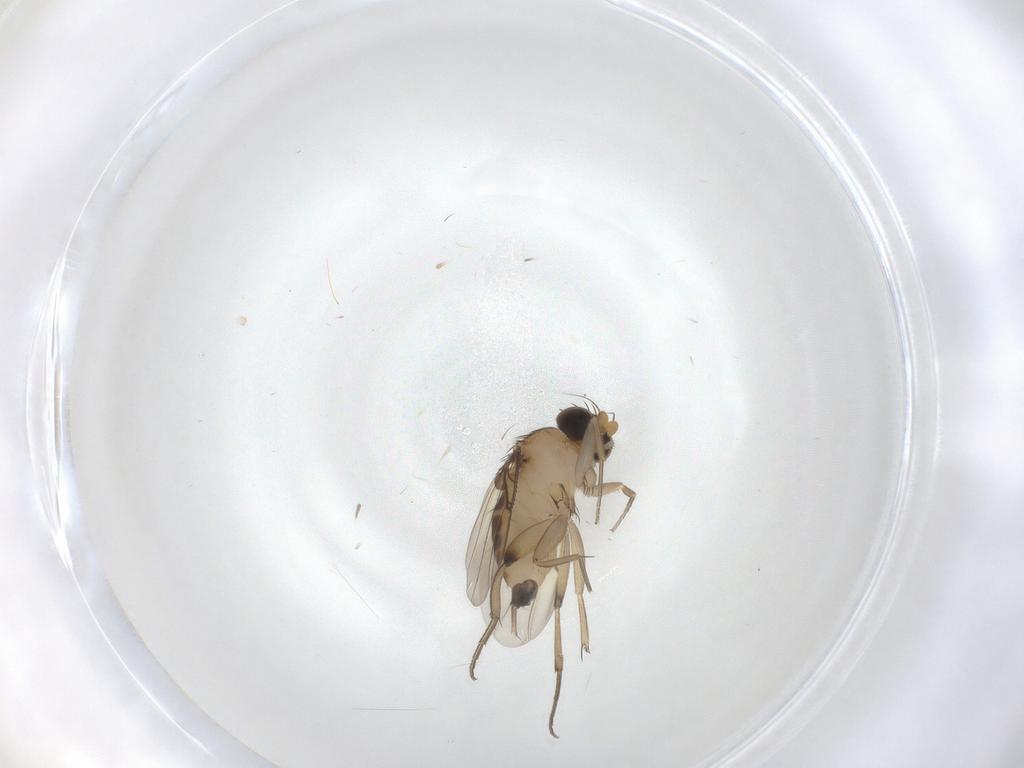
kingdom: Animalia
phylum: Arthropoda
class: Insecta
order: Diptera
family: Phoridae
